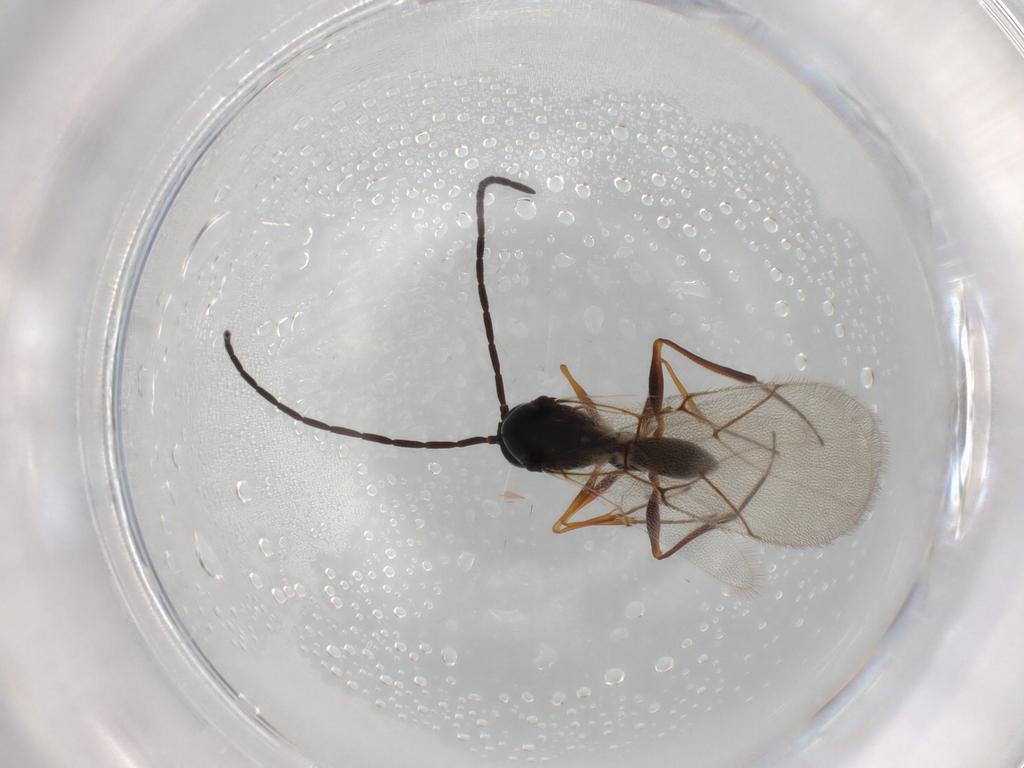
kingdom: Animalia
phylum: Arthropoda
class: Insecta
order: Hymenoptera
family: Figitidae
